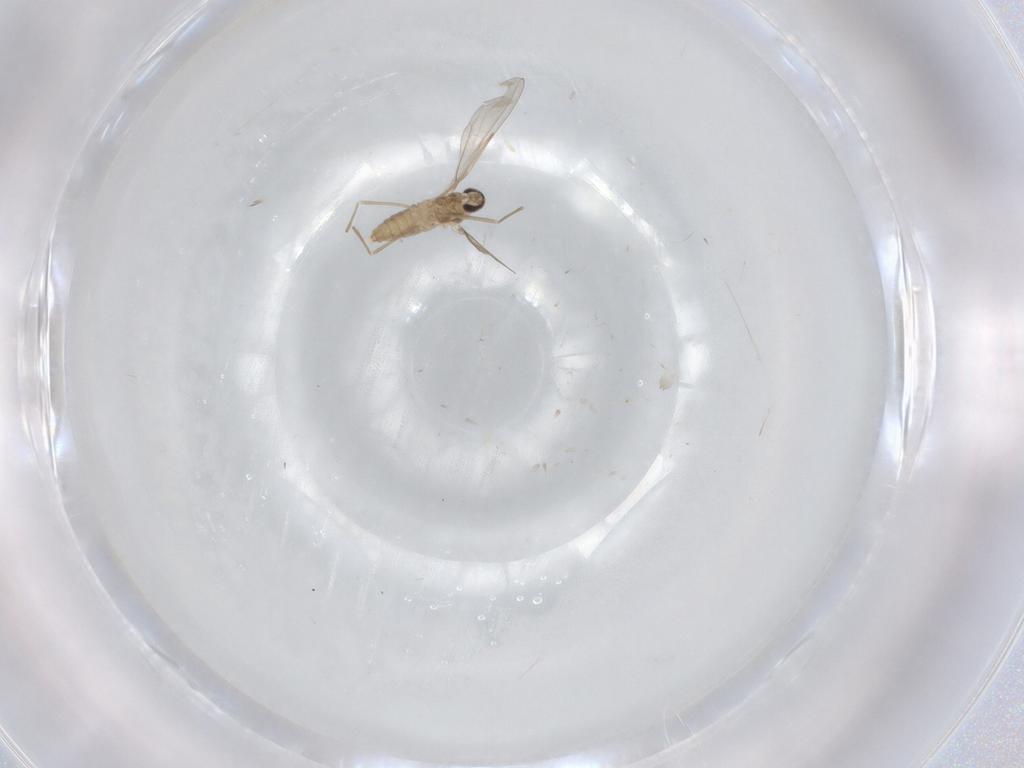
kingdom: Animalia
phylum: Arthropoda
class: Insecta
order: Diptera
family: Cecidomyiidae
